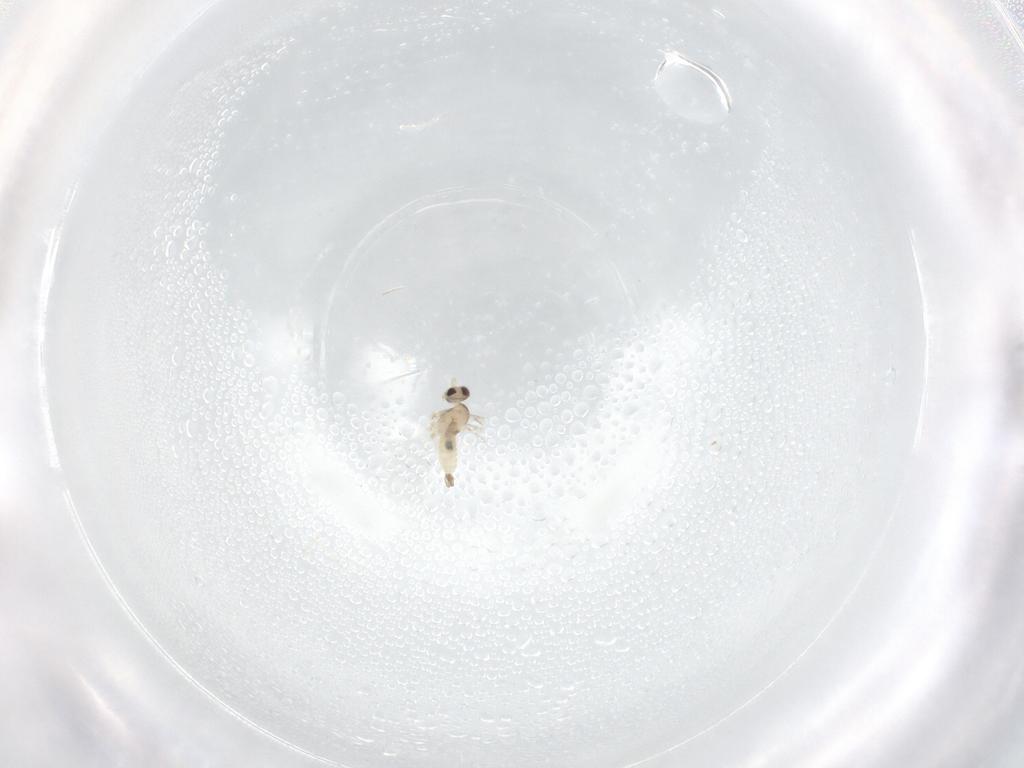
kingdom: Animalia
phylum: Arthropoda
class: Insecta
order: Diptera
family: Cecidomyiidae
